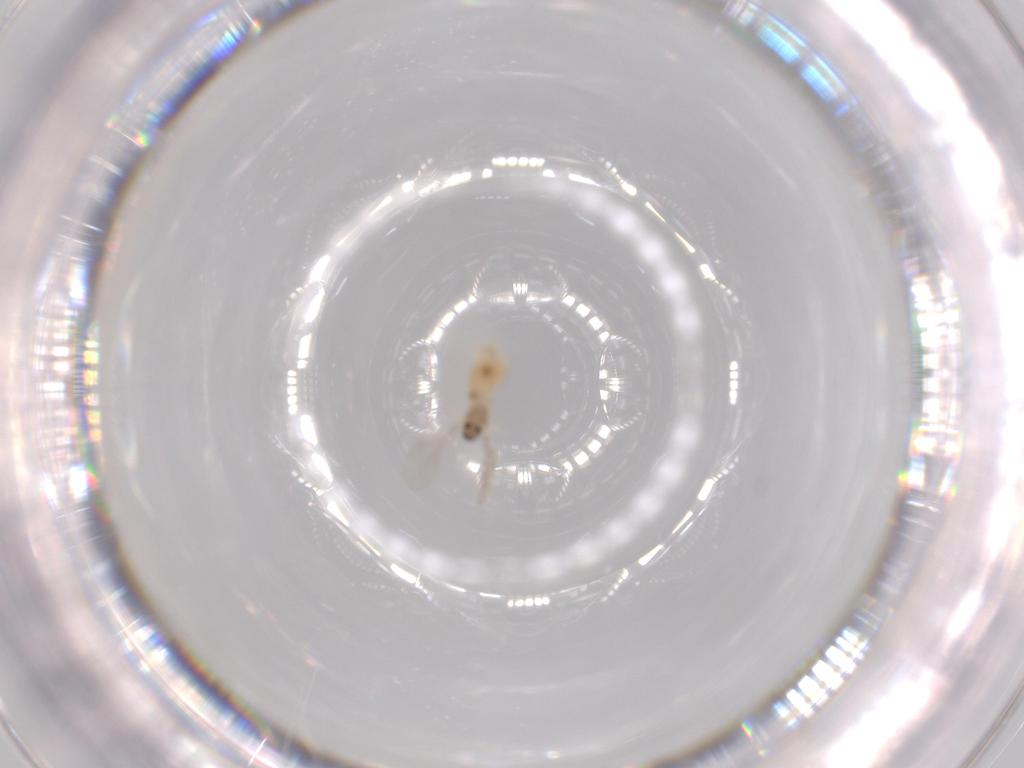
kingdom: Animalia
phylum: Arthropoda
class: Insecta
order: Diptera
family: Cecidomyiidae
